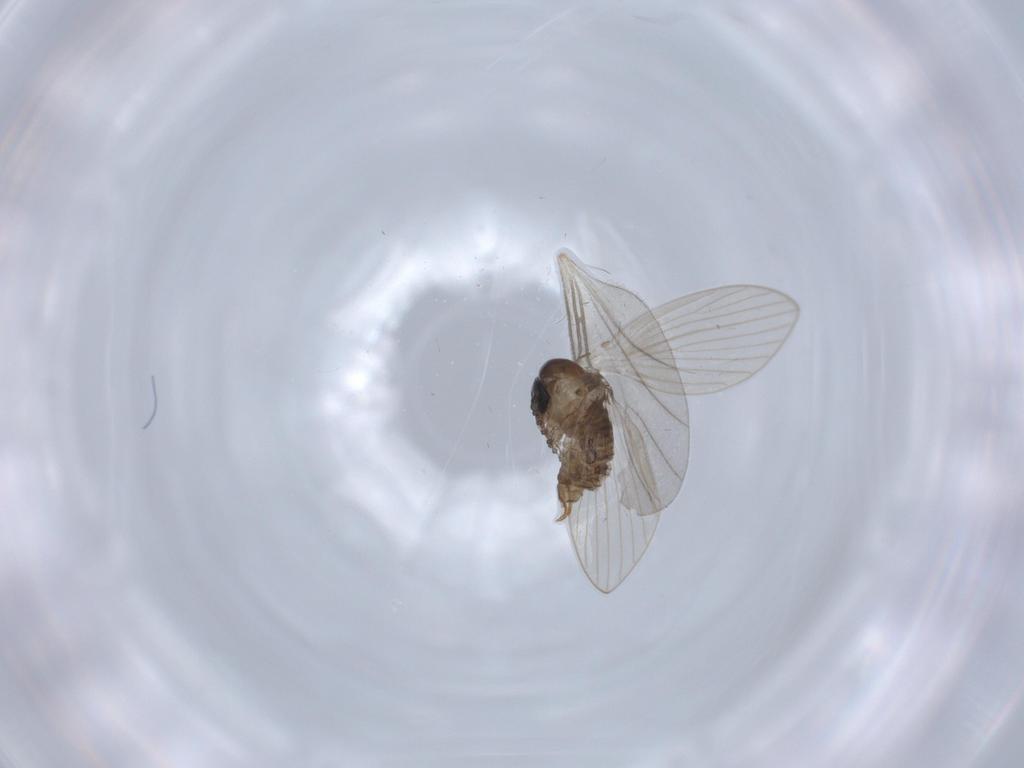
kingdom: Animalia
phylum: Arthropoda
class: Insecta
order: Diptera
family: Psychodidae
